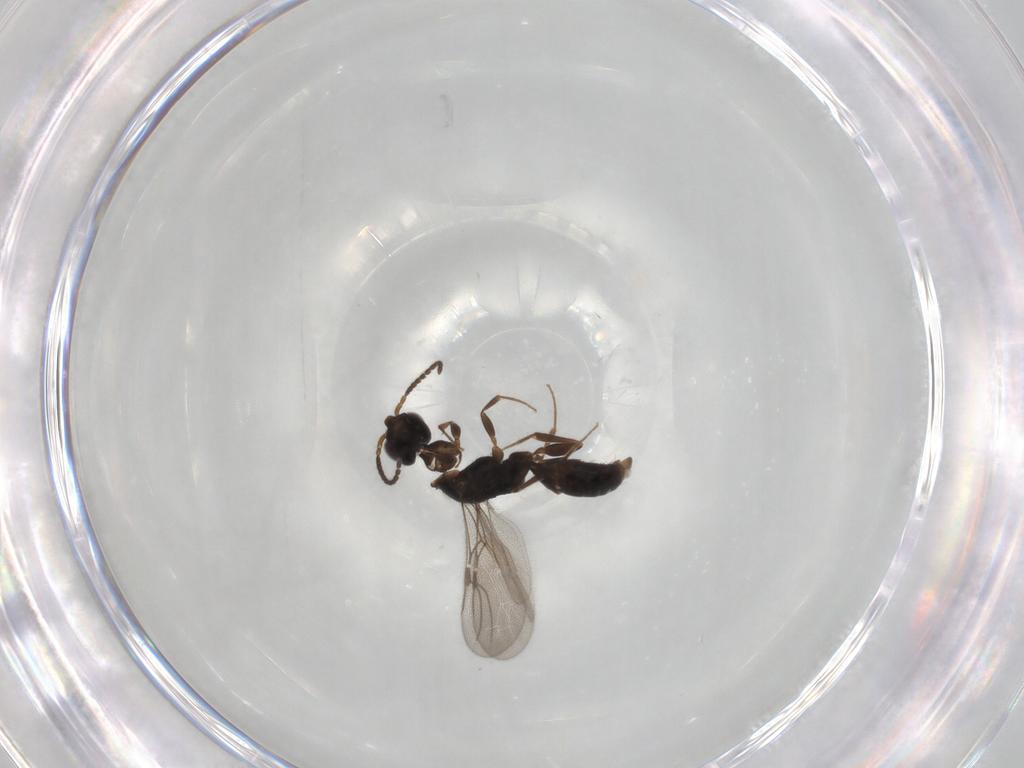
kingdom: Animalia
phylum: Arthropoda
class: Insecta
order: Hymenoptera
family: Bethylidae
